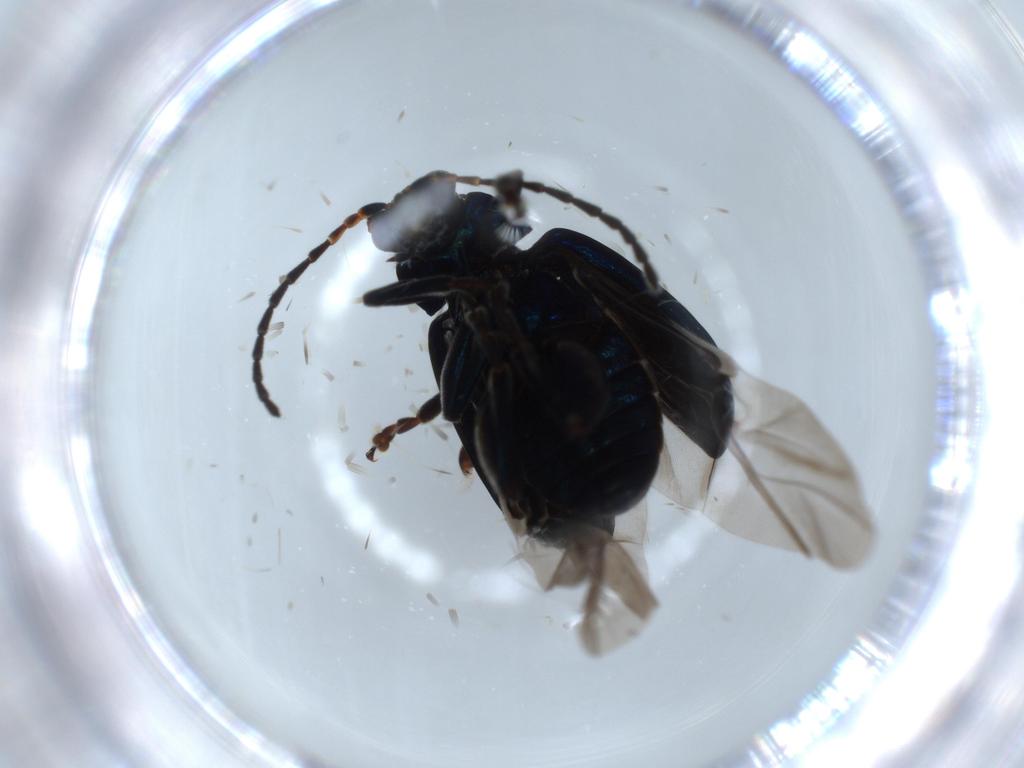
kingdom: Animalia
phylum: Arthropoda
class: Insecta
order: Coleoptera
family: Chrysomelidae
